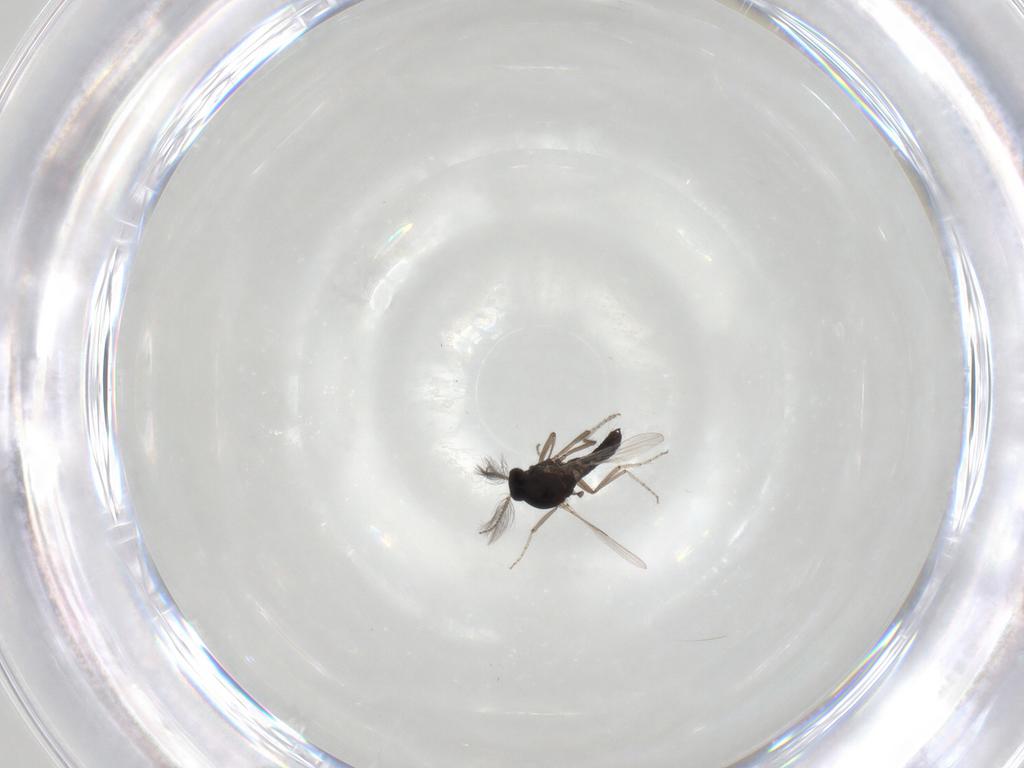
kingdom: Animalia
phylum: Arthropoda
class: Insecta
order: Diptera
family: Ceratopogonidae
